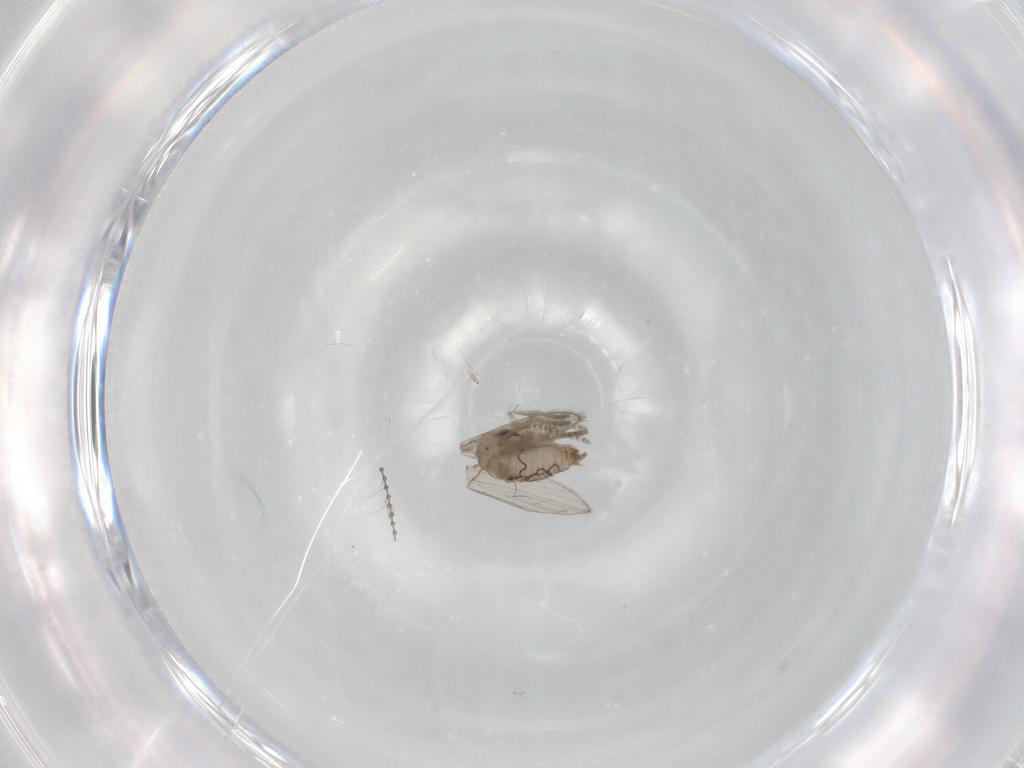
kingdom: Animalia
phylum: Arthropoda
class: Insecta
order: Diptera
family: Psychodidae
